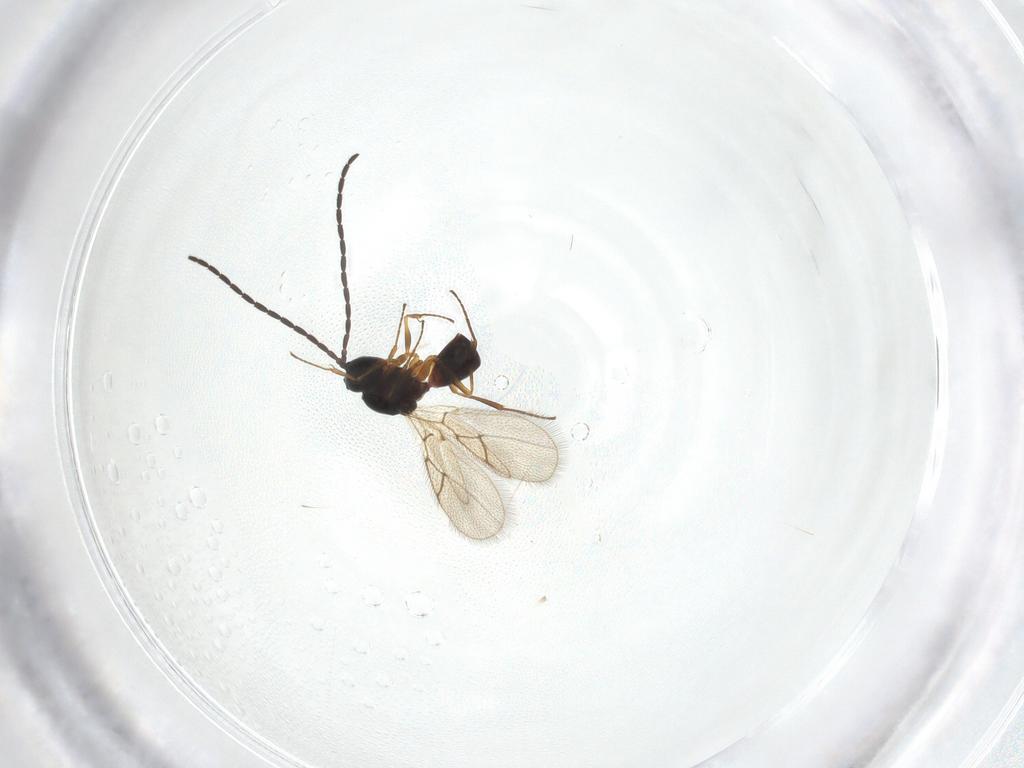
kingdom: Animalia
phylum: Arthropoda
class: Insecta
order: Hymenoptera
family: Figitidae
